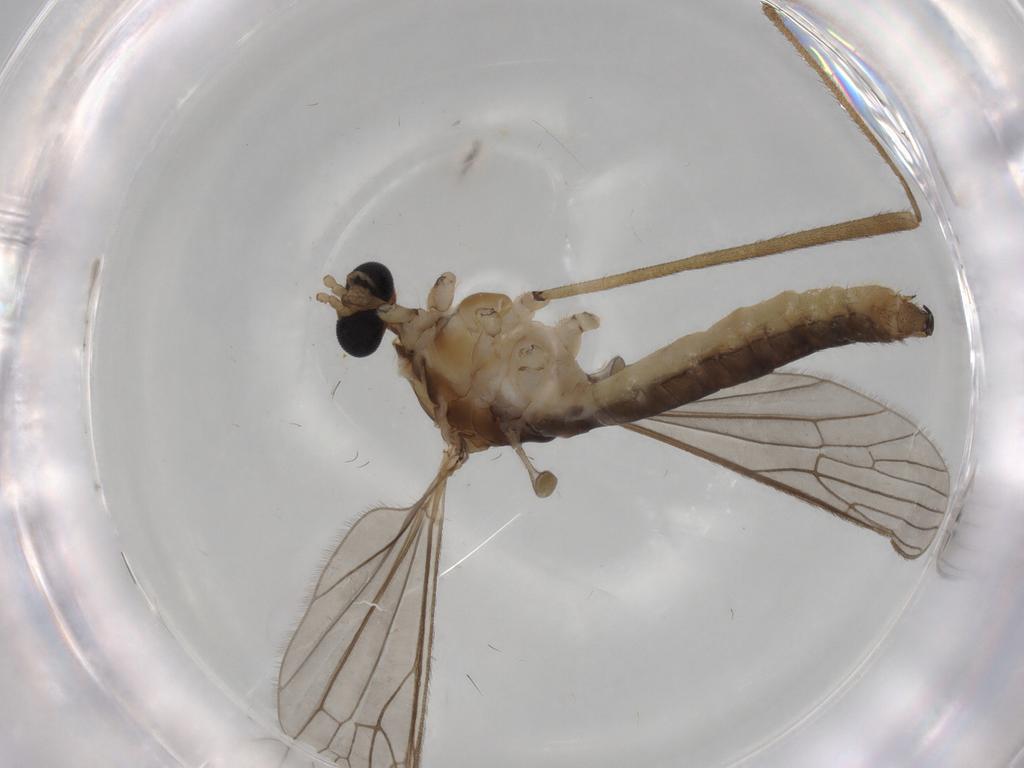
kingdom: Animalia
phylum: Arthropoda
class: Insecta
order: Diptera
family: Limoniidae
